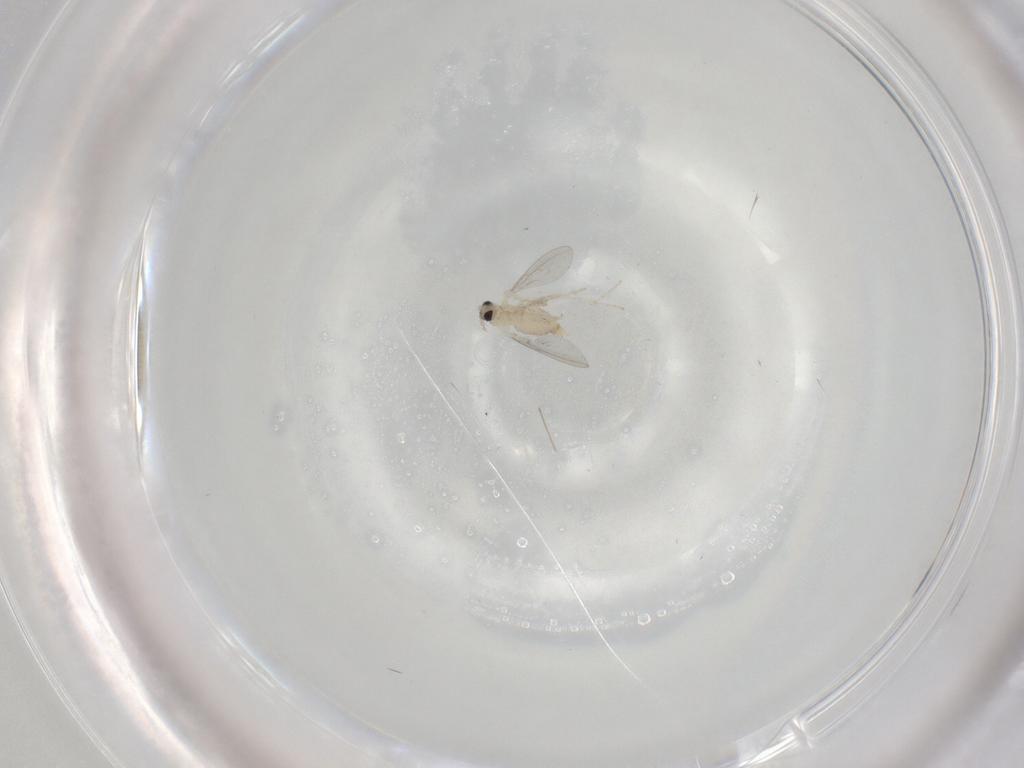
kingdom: Animalia
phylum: Arthropoda
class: Insecta
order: Diptera
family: Cecidomyiidae
